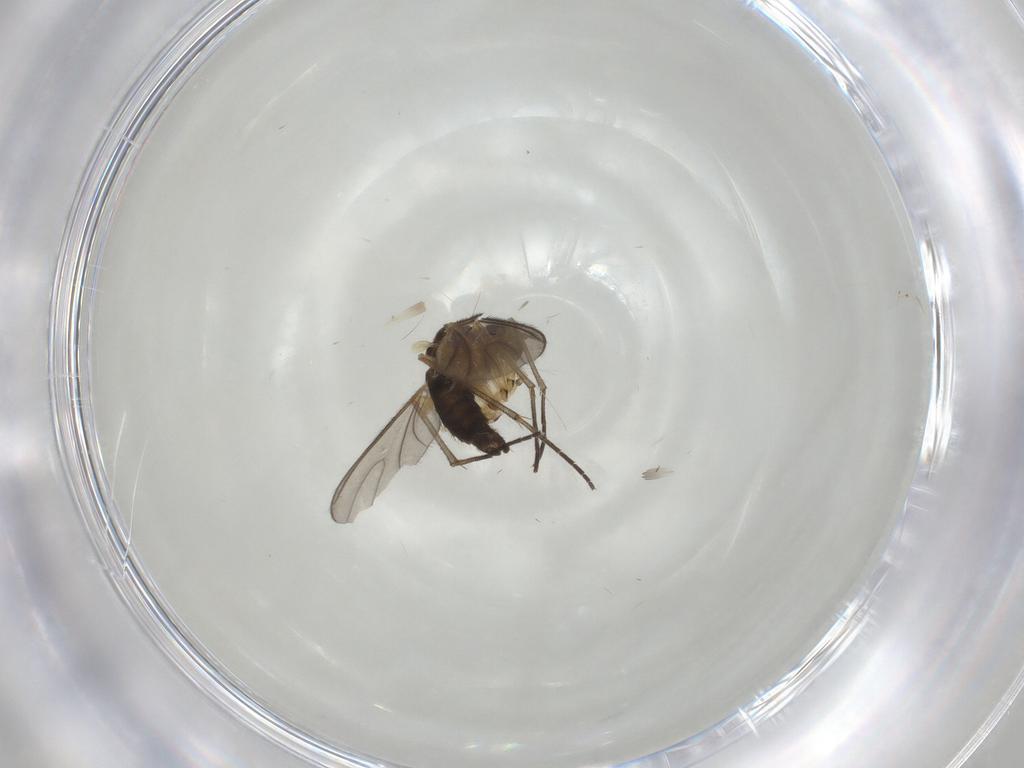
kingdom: Animalia
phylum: Arthropoda
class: Insecta
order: Diptera
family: Sciaridae
